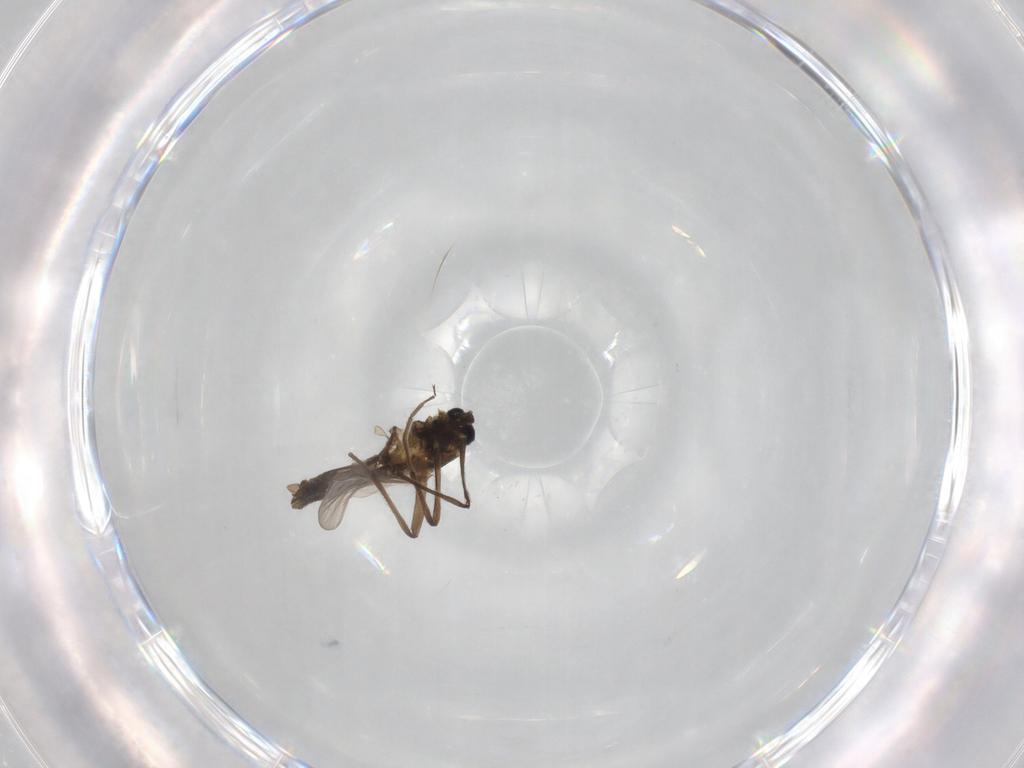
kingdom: Animalia
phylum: Arthropoda
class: Insecta
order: Diptera
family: Chironomidae
